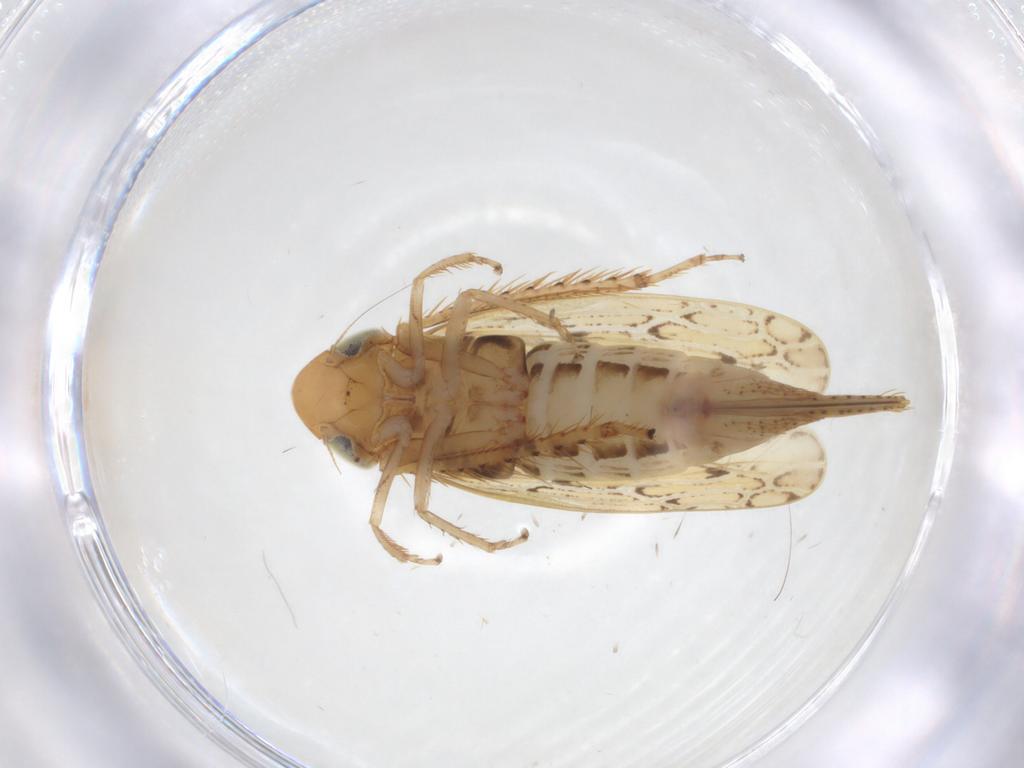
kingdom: Animalia
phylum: Arthropoda
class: Insecta
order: Hemiptera
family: Cicadellidae
